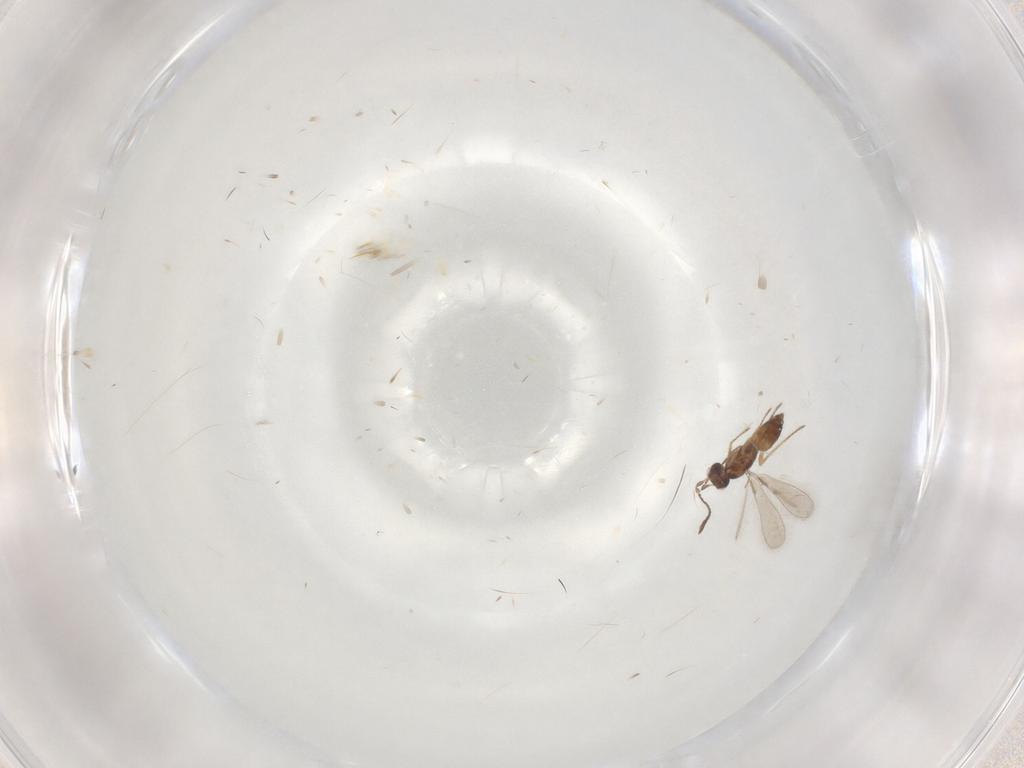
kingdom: Animalia
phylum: Arthropoda
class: Insecta
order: Hymenoptera
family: Mymaridae
